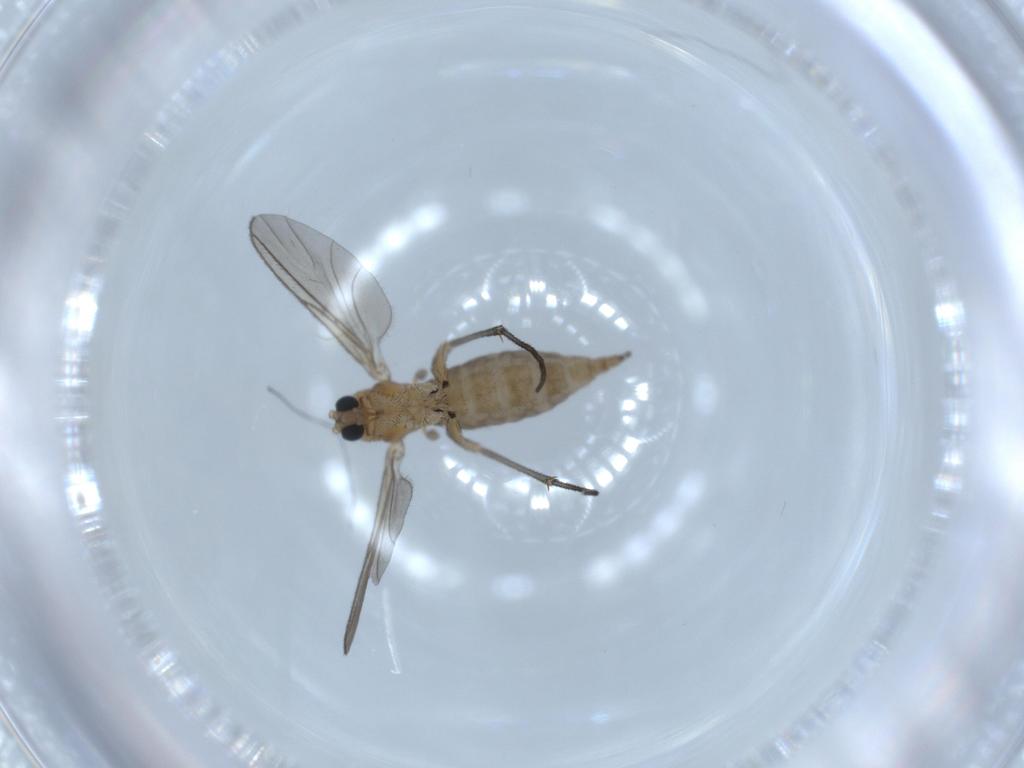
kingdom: Animalia
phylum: Arthropoda
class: Insecta
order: Diptera
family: Sciaridae
